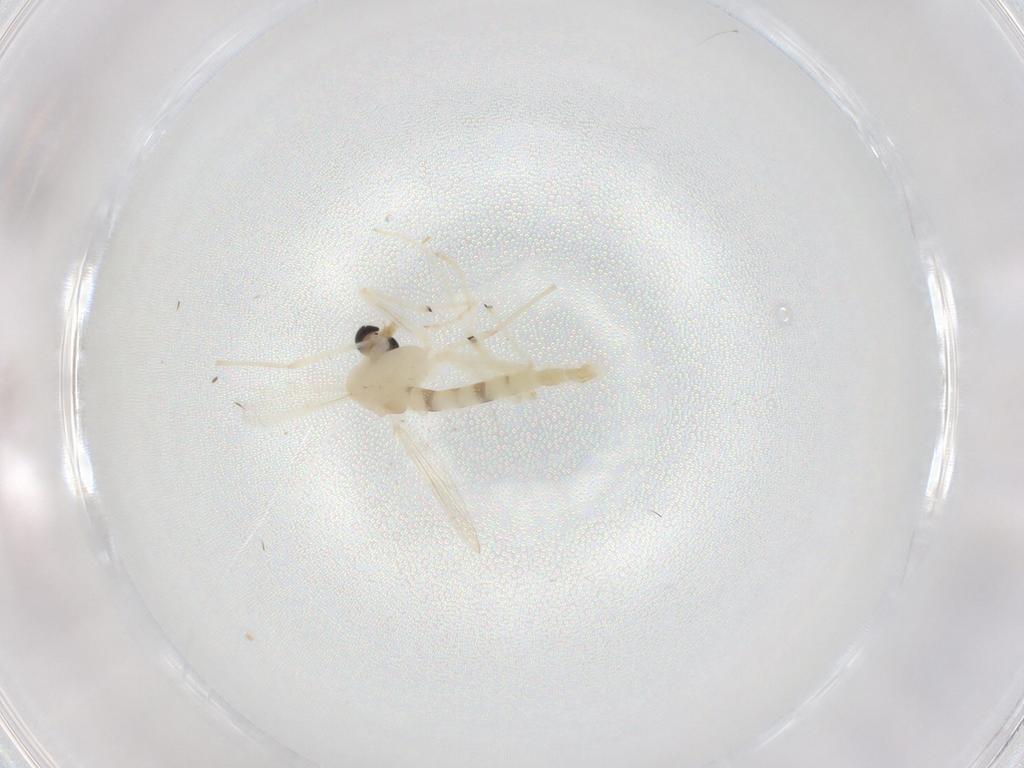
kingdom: Animalia
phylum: Arthropoda
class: Insecta
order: Diptera
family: Chironomidae
